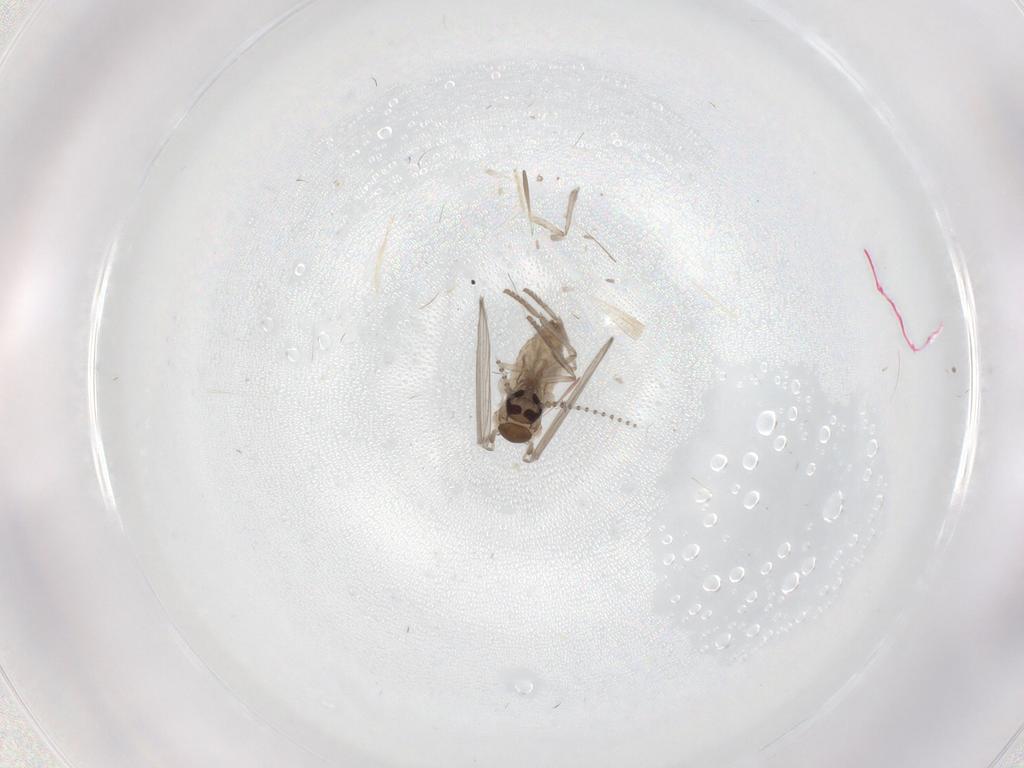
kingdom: Animalia
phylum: Arthropoda
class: Insecta
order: Diptera
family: Psychodidae
